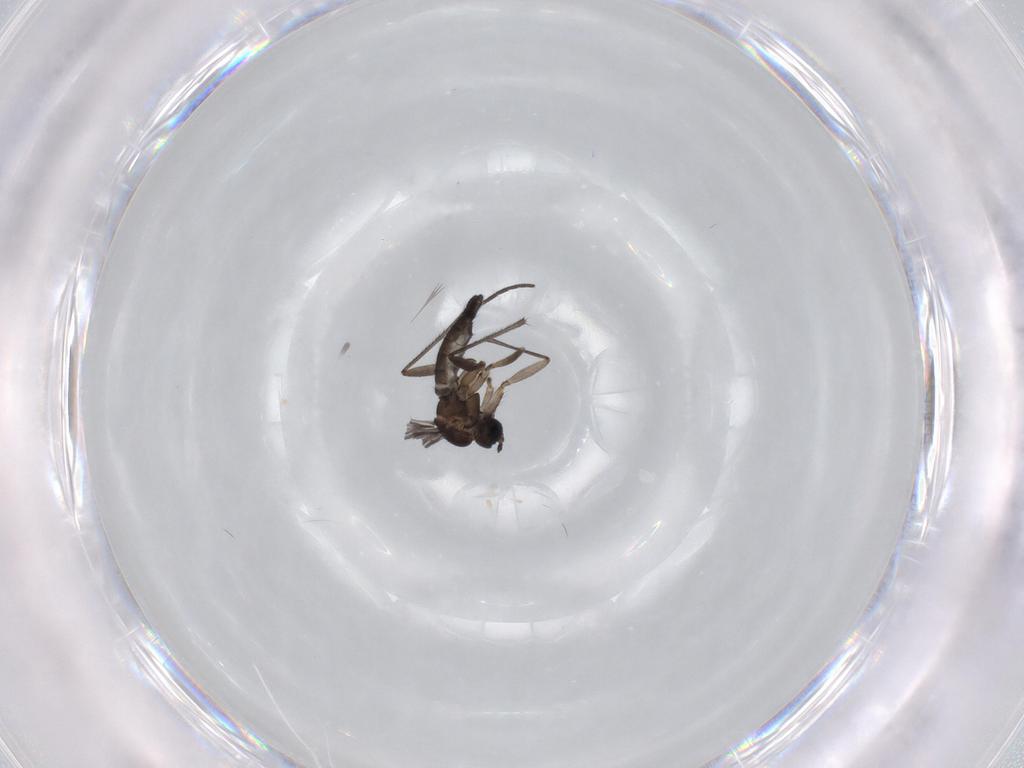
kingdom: Animalia
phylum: Arthropoda
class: Insecta
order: Diptera
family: Sciaridae
